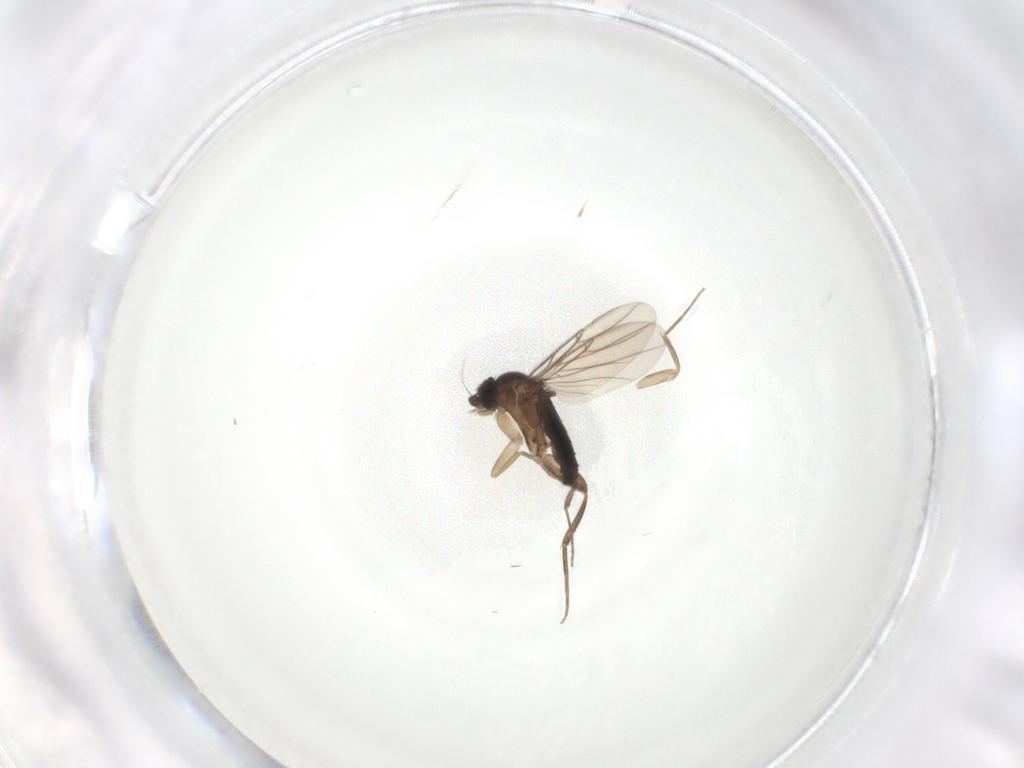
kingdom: Animalia
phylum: Arthropoda
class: Insecta
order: Diptera
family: Phoridae
